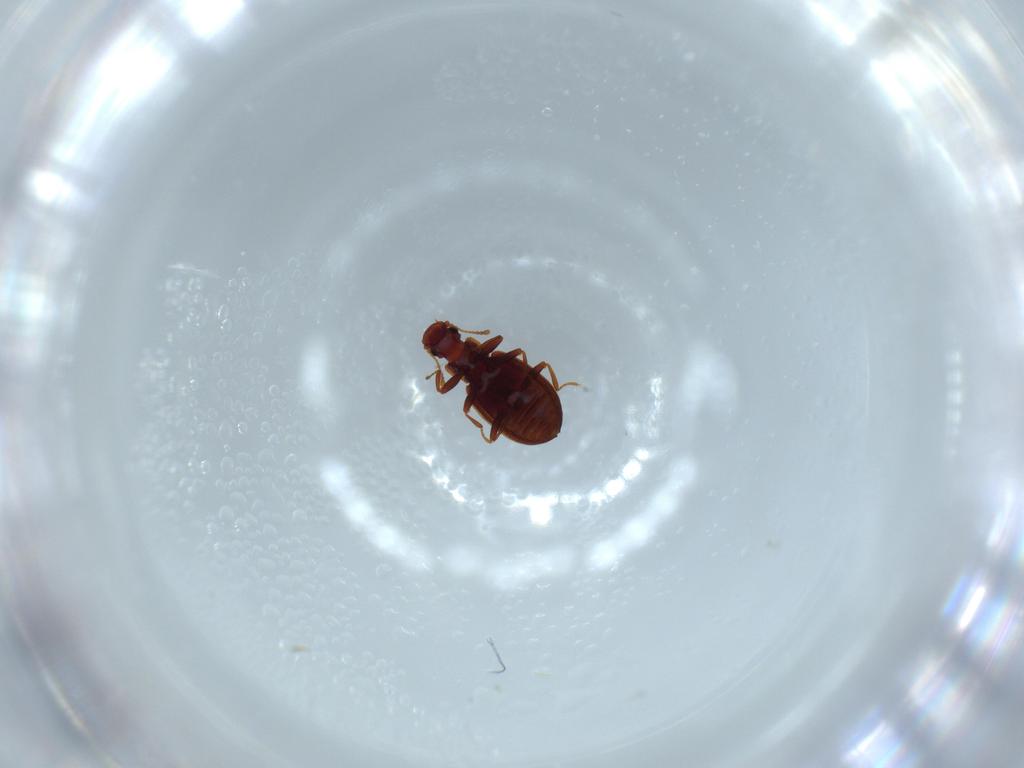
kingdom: Animalia
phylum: Arthropoda
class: Insecta
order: Coleoptera
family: Latridiidae
